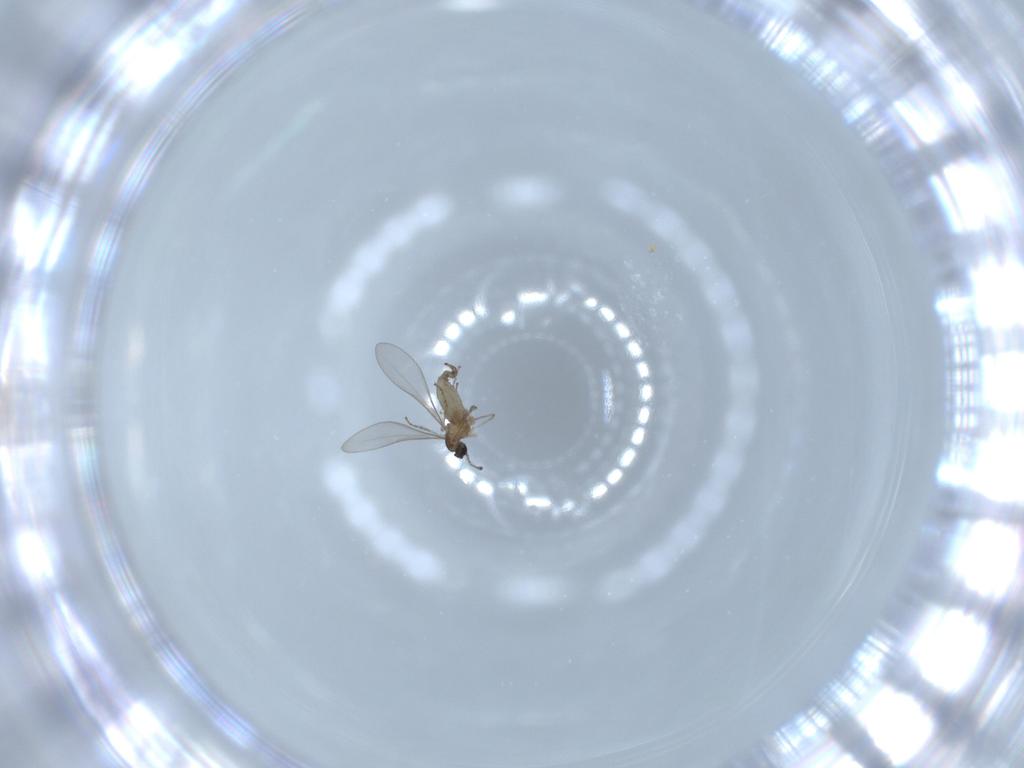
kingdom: Animalia
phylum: Arthropoda
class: Insecta
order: Diptera
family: Cecidomyiidae
